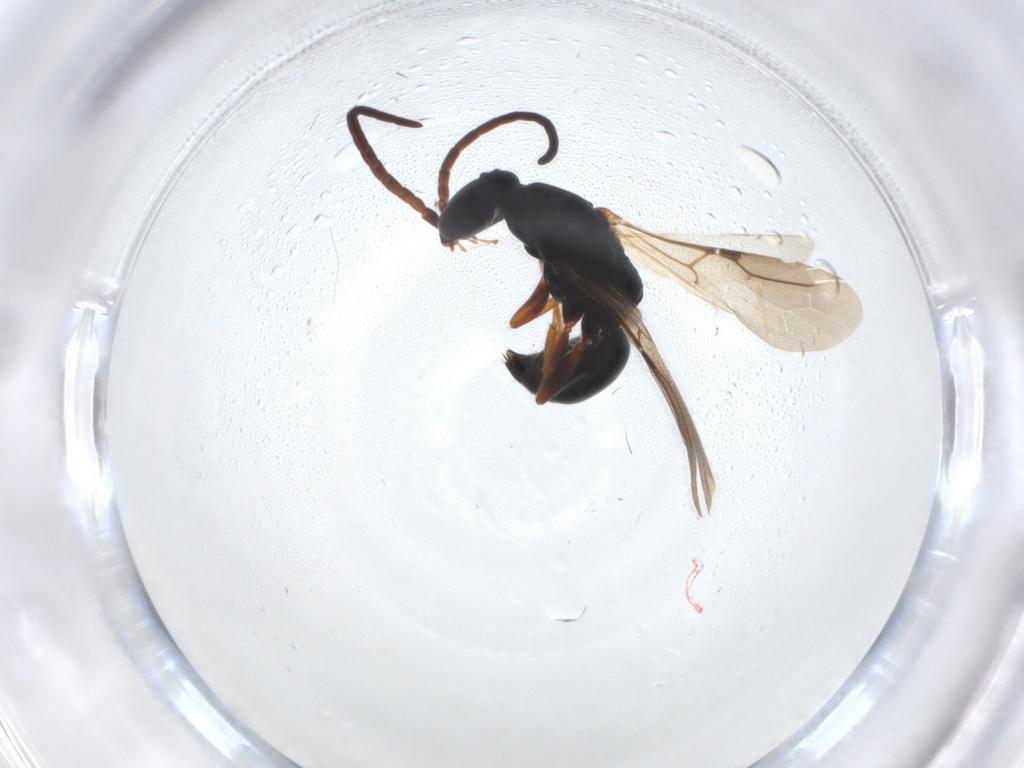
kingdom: Animalia
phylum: Arthropoda
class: Insecta
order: Hymenoptera
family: Bethylidae
